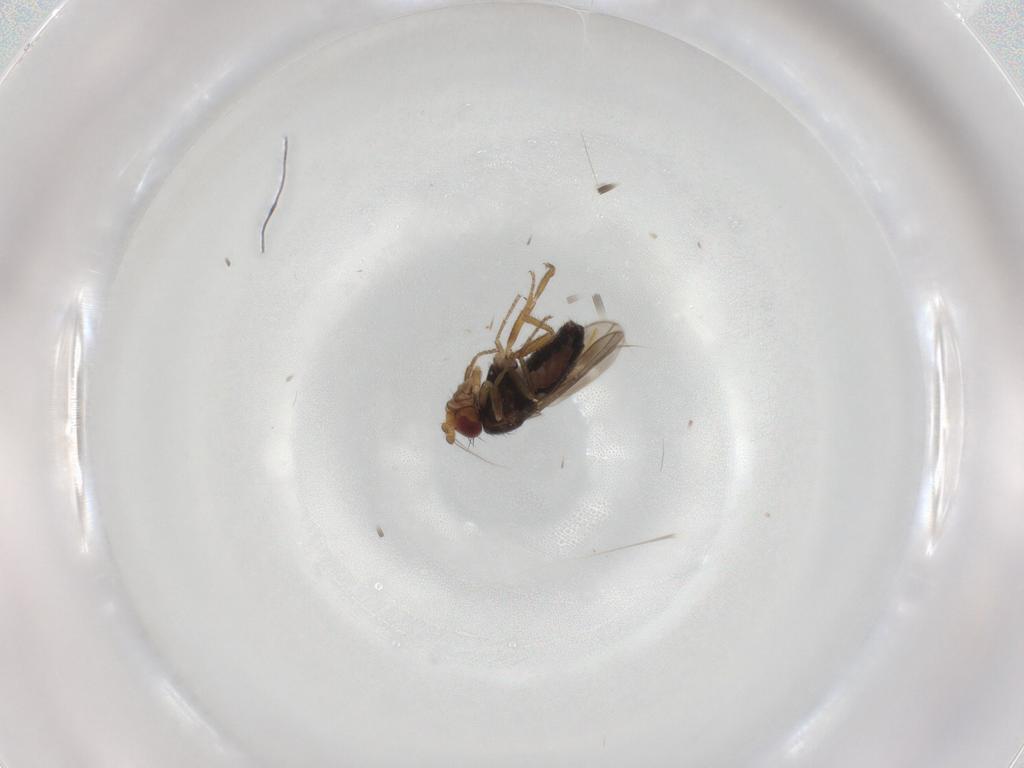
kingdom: Animalia
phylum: Arthropoda
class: Insecta
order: Diptera
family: Sphaeroceridae
